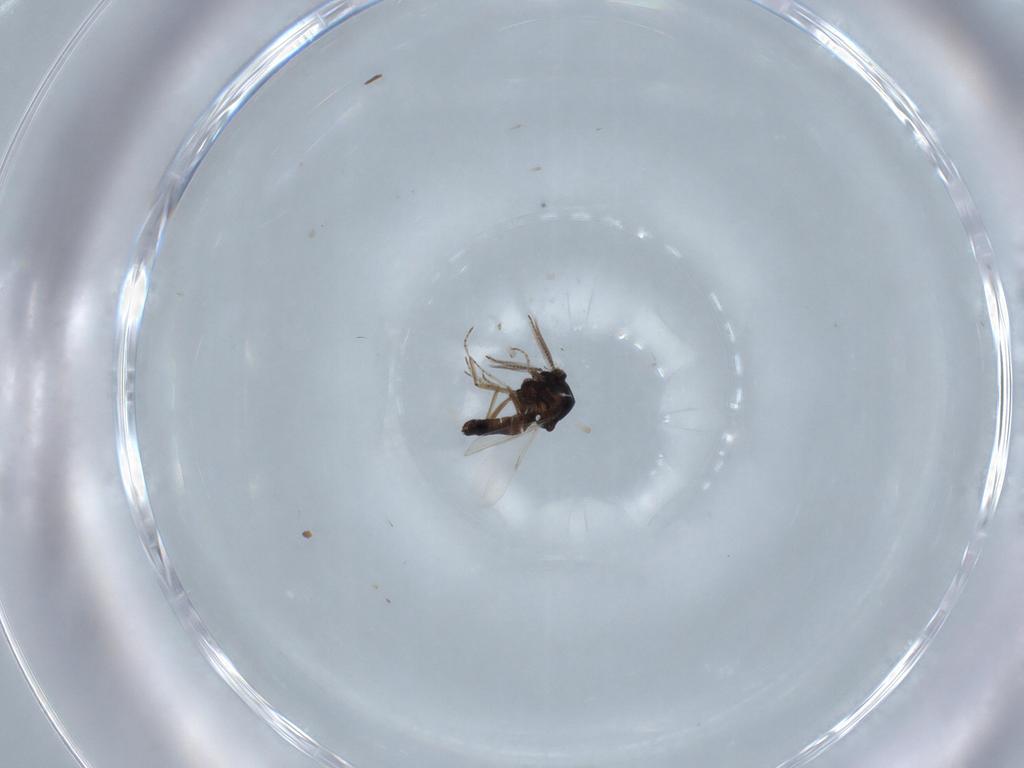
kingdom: Animalia
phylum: Arthropoda
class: Insecta
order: Diptera
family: Ceratopogonidae
